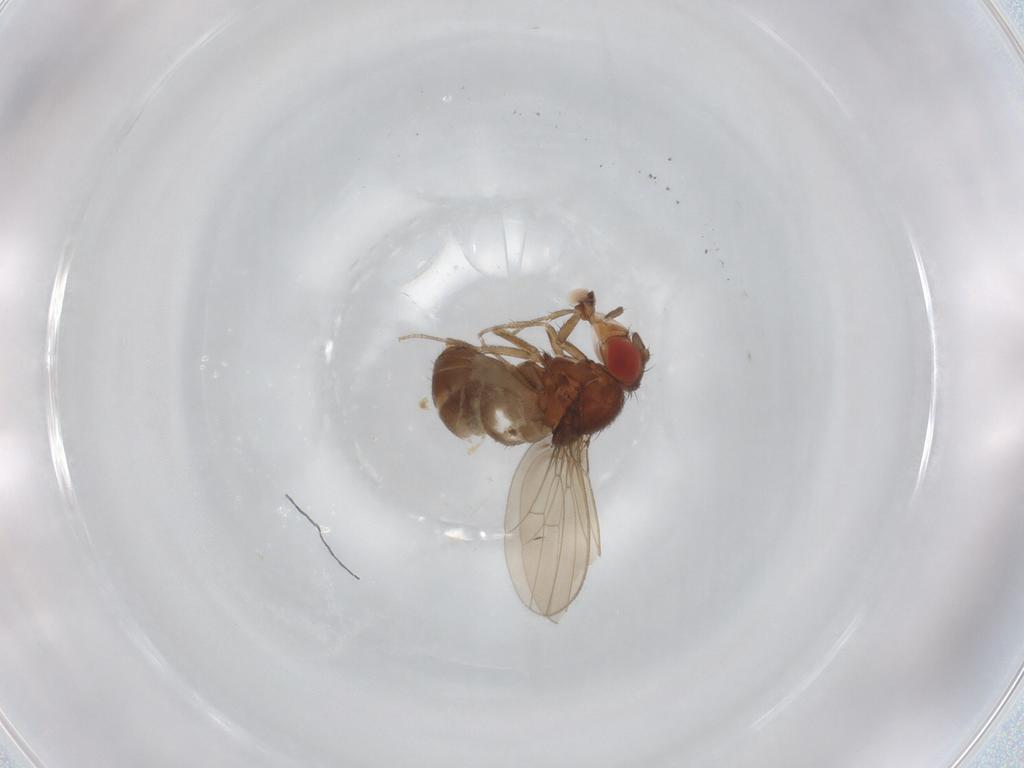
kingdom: Animalia
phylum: Arthropoda
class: Insecta
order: Diptera
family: Drosophilidae
